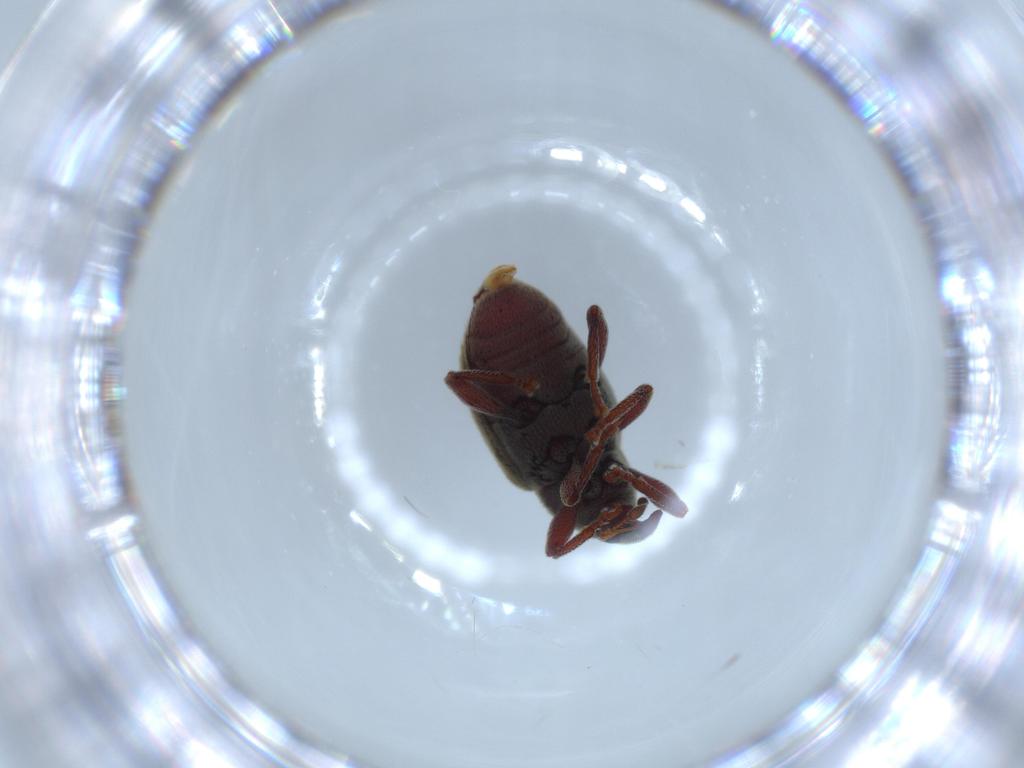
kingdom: Animalia
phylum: Arthropoda
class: Insecta
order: Coleoptera
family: Curculionidae
